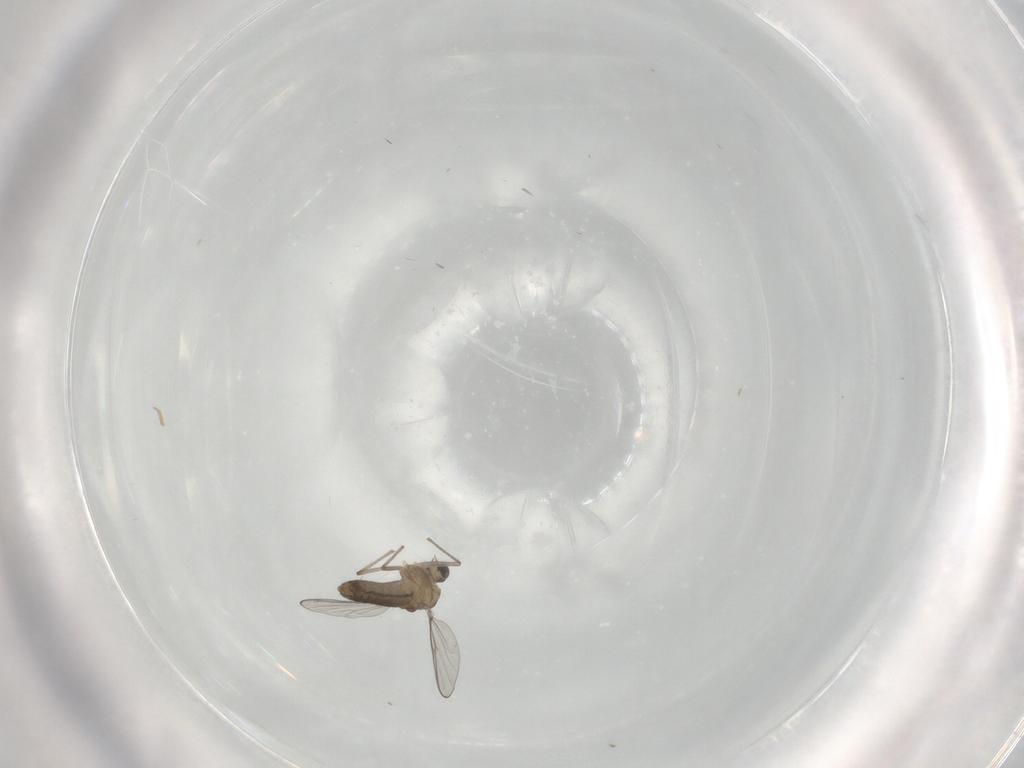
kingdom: Animalia
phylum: Arthropoda
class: Insecta
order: Diptera
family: Chironomidae
